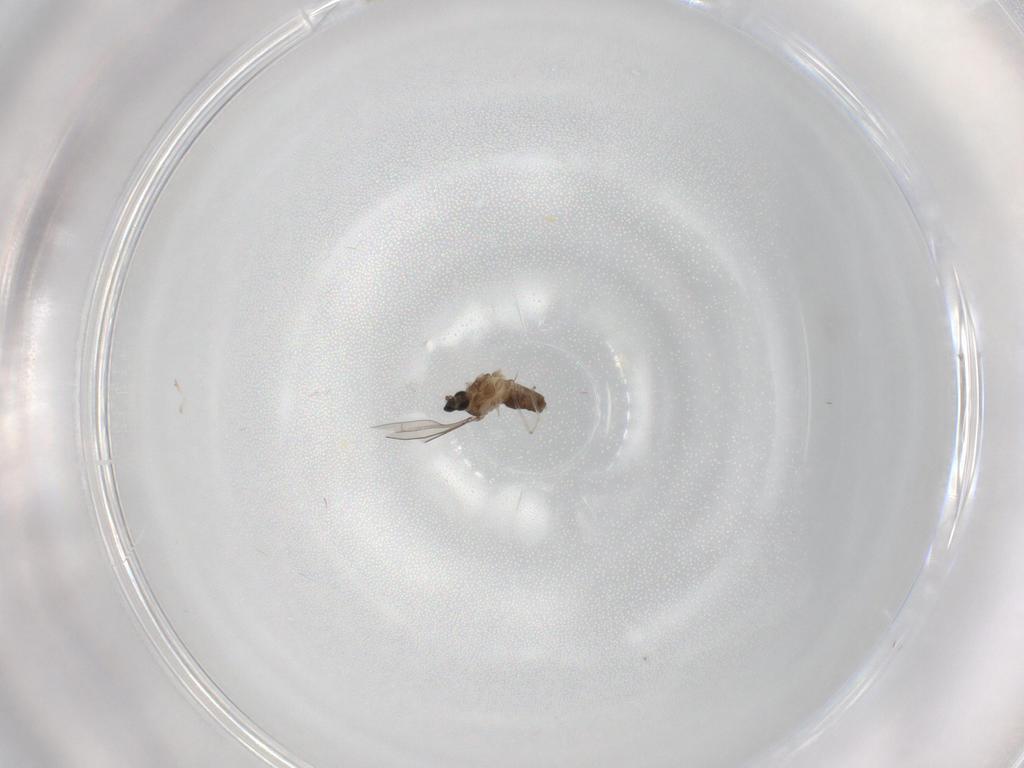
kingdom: Animalia
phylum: Arthropoda
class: Insecta
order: Diptera
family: Cecidomyiidae
